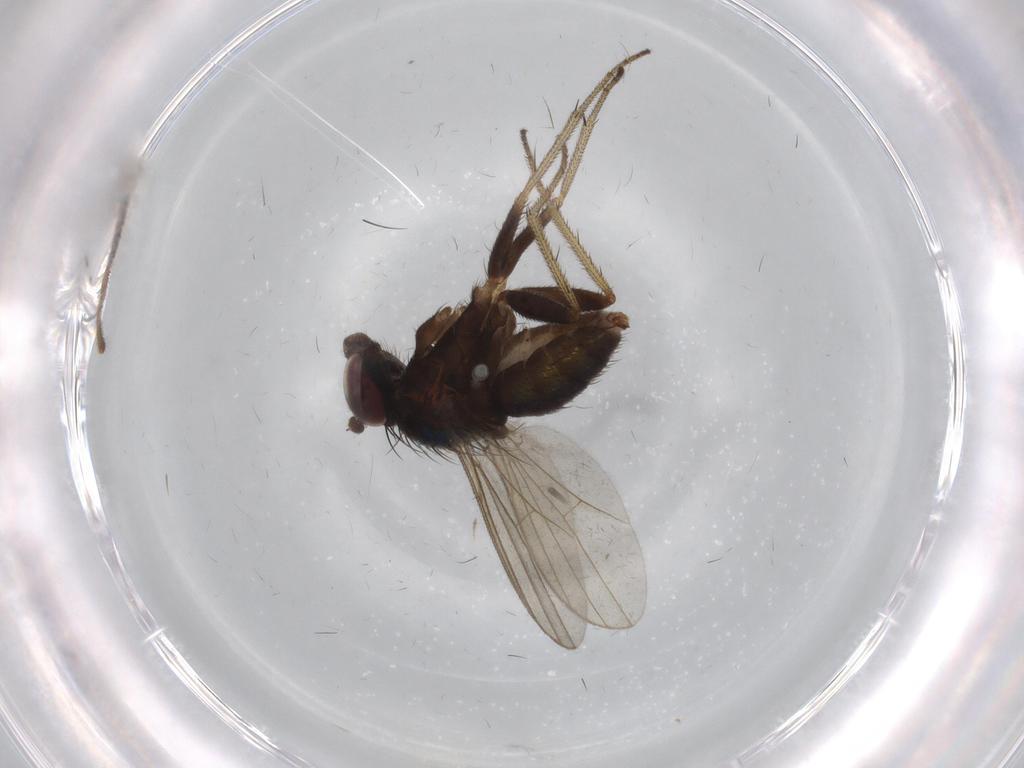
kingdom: Animalia
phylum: Arthropoda
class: Insecta
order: Diptera
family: Dolichopodidae
